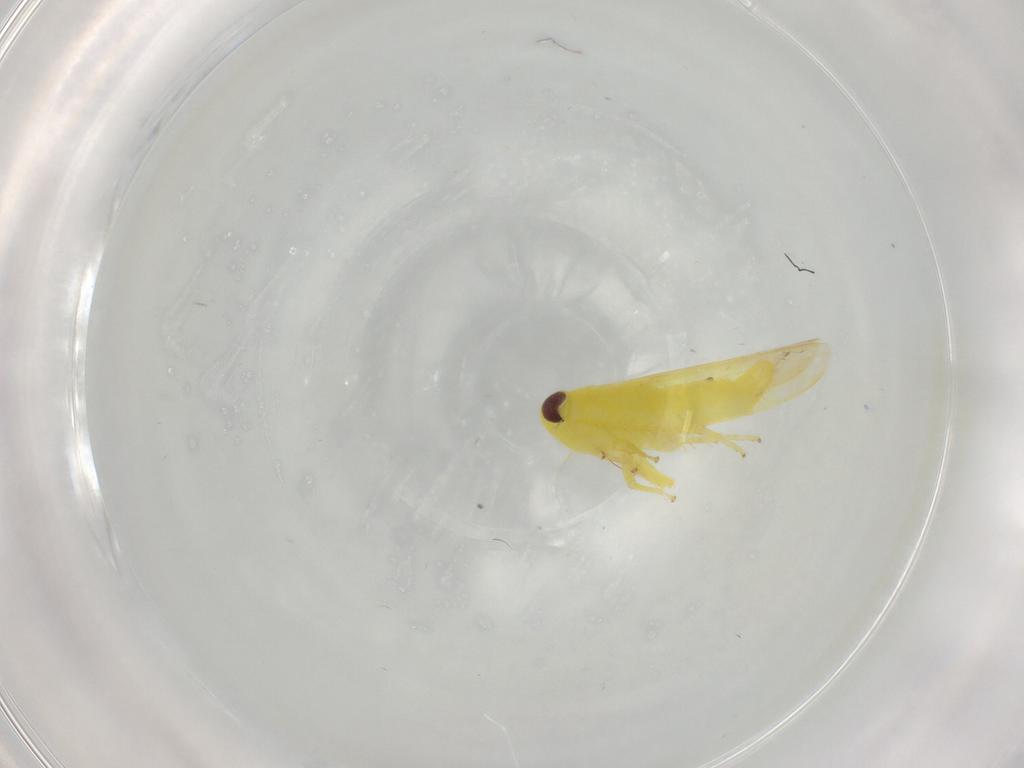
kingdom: Animalia
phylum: Arthropoda
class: Insecta
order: Hemiptera
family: Cicadellidae
